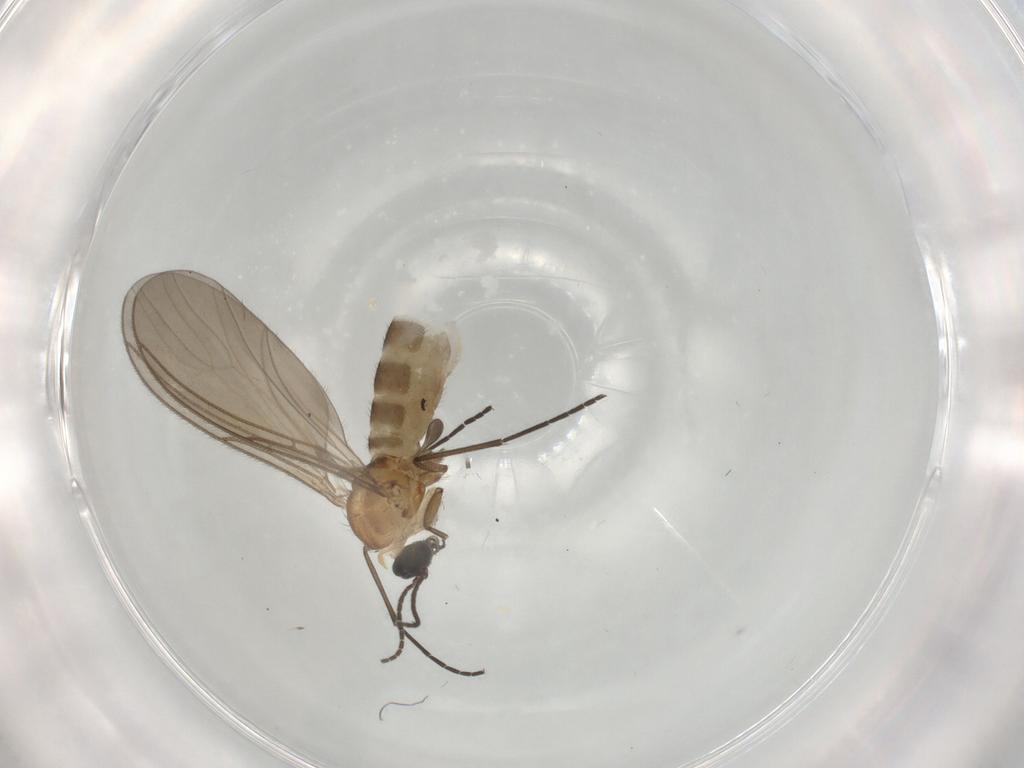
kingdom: Animalia
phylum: Arthropoda
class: Insecta
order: Diptera
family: Sciaridae
